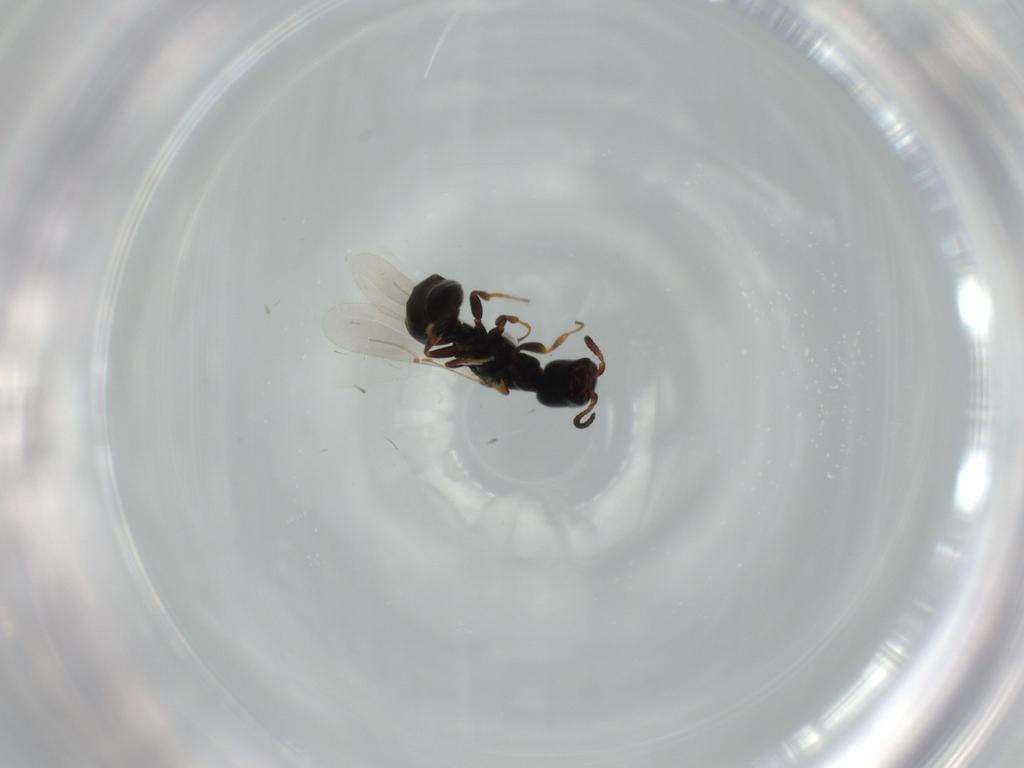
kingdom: Animalia
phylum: Arthropoda
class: Insecta
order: Hymenoptera
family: Bethylidae
